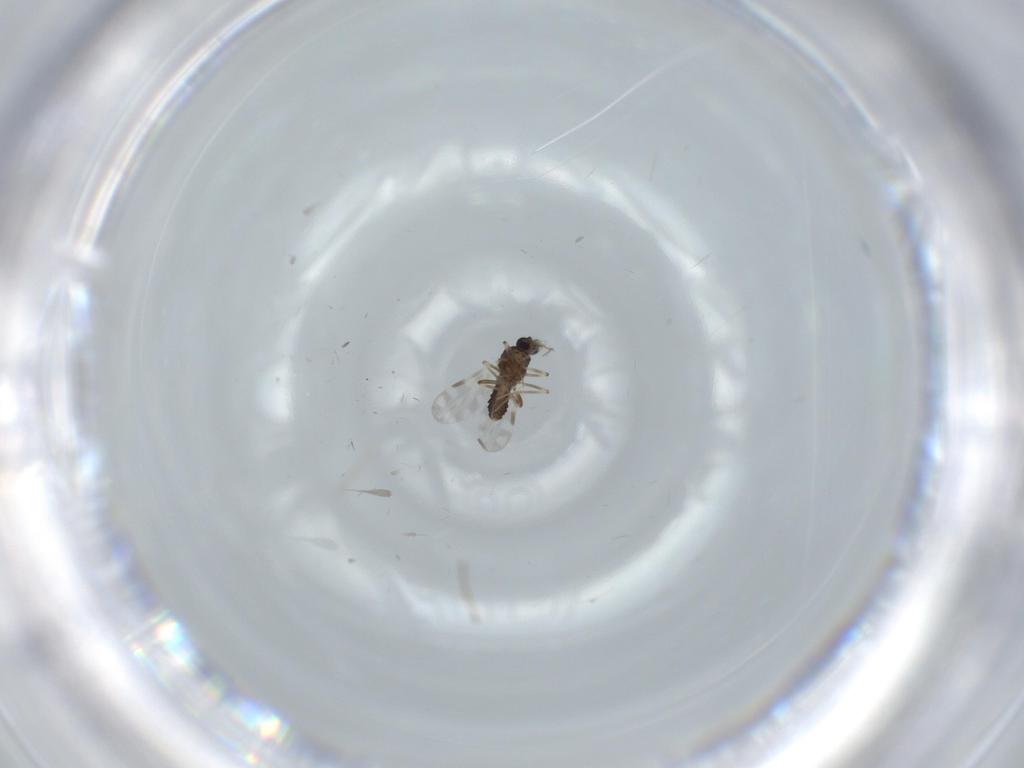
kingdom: Animalia
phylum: Arthropoda
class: Insecta
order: Diptera
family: Ceratopogonidae
